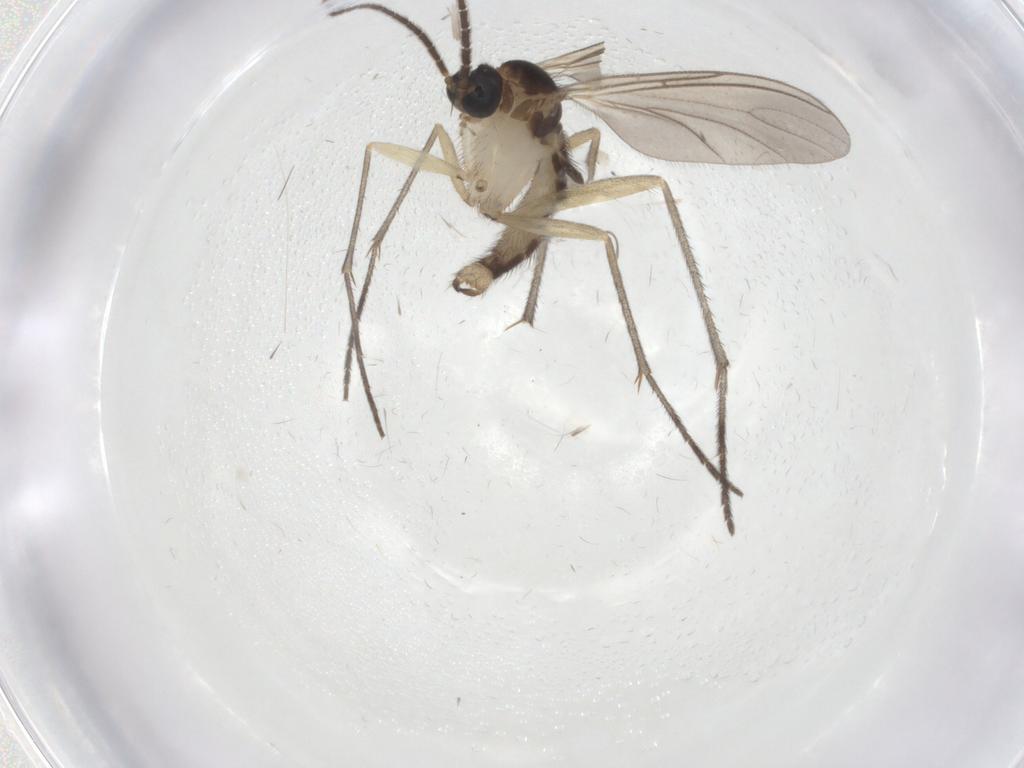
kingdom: Animalia
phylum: Arthropoda
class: Insecta
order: Diptera
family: Sciaridae
